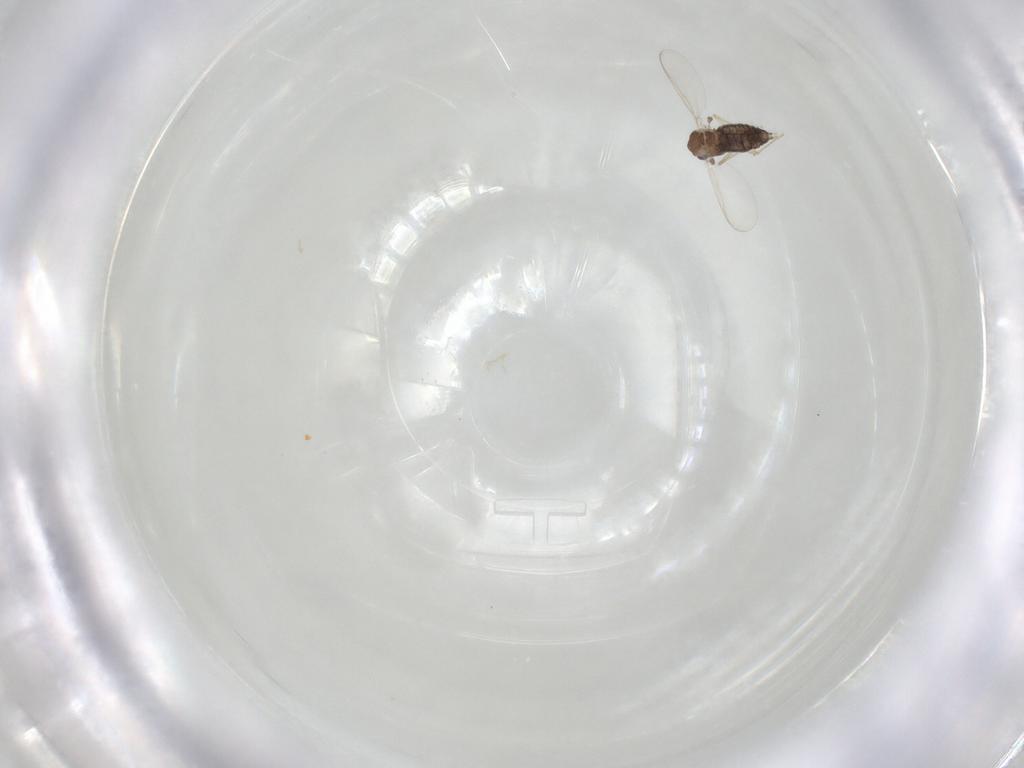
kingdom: Animalia
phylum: Arthropoda
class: Insecta
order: Diptera
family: Chironomidae
